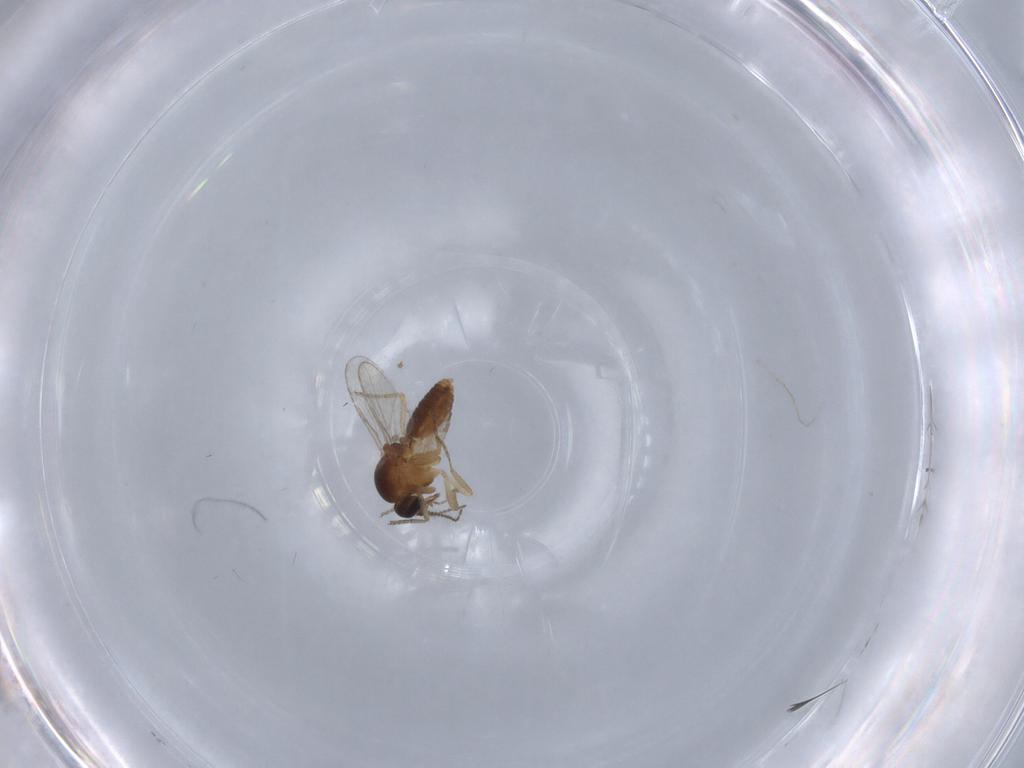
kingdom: Animalia
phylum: Arthropoda
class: Insecta
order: Diptera
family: Ceratopogonidae
